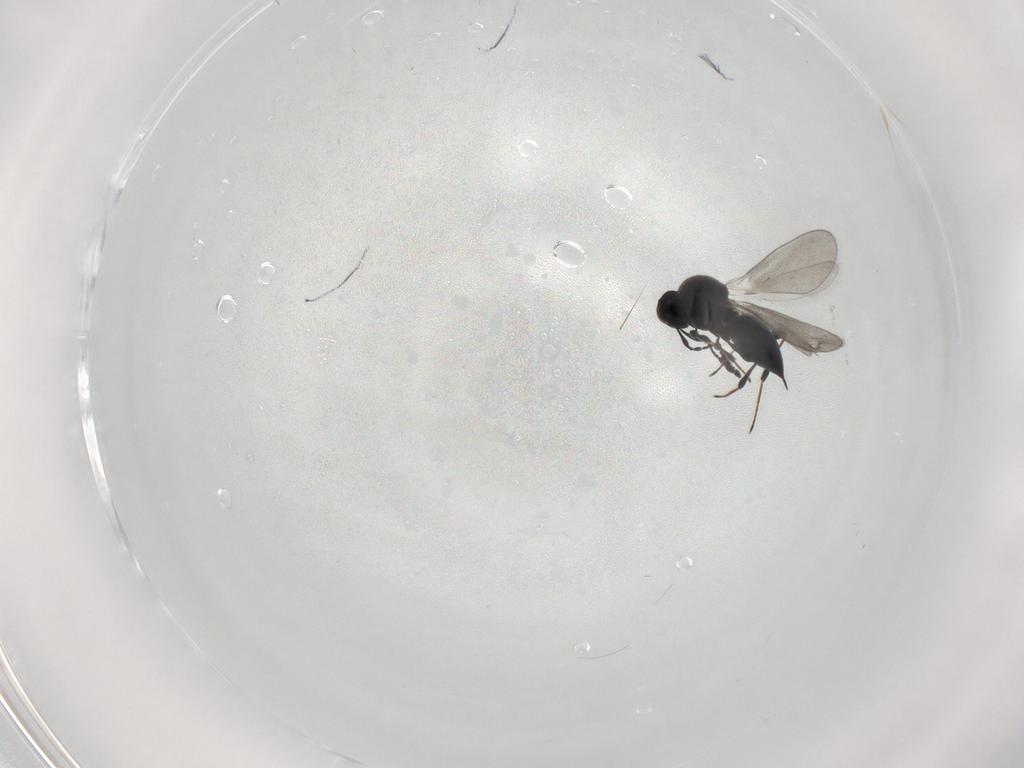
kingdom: Animalia
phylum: Arthropoda
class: Insecta
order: Hymenoptera
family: Platygastridae
